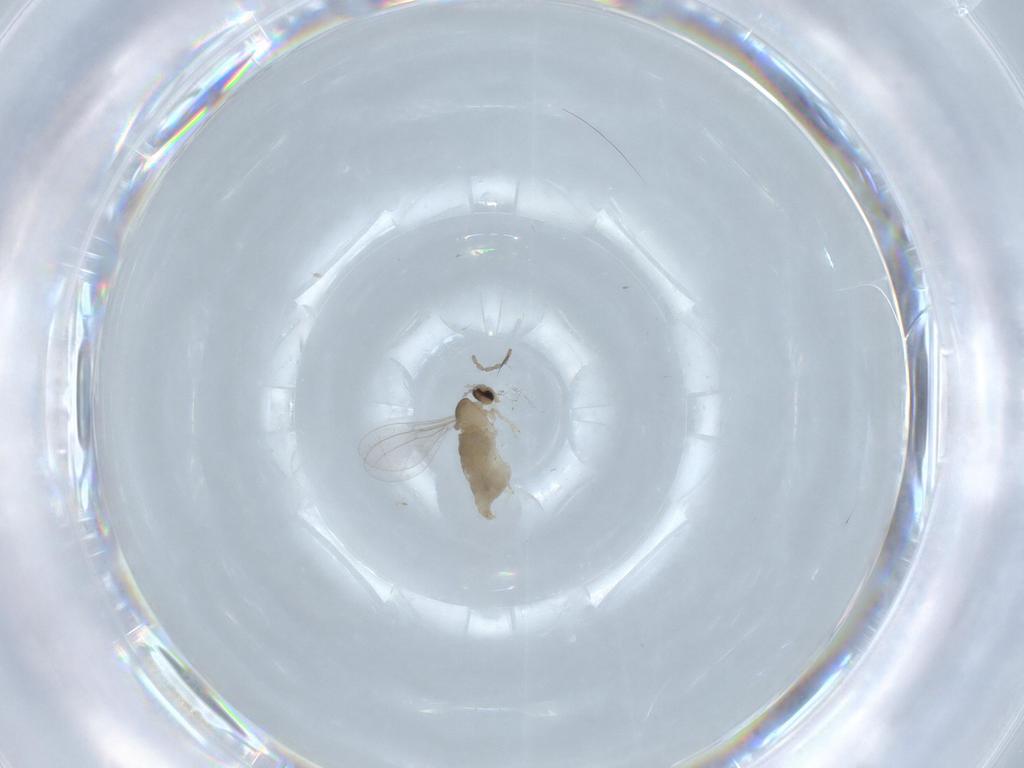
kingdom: Animalia
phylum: Arthropoda
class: Insecta
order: Diptera
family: Cecidomyiidae
